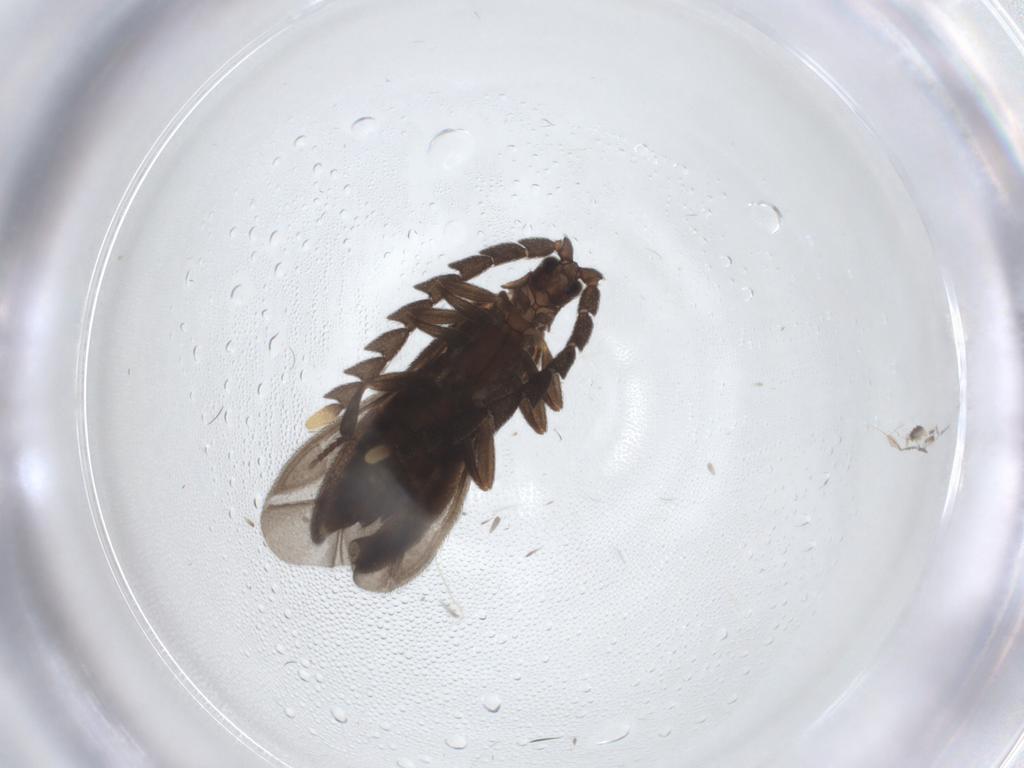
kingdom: Animalia
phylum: Arthropoda
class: Insecta
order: Coleoptera
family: Lycidae
